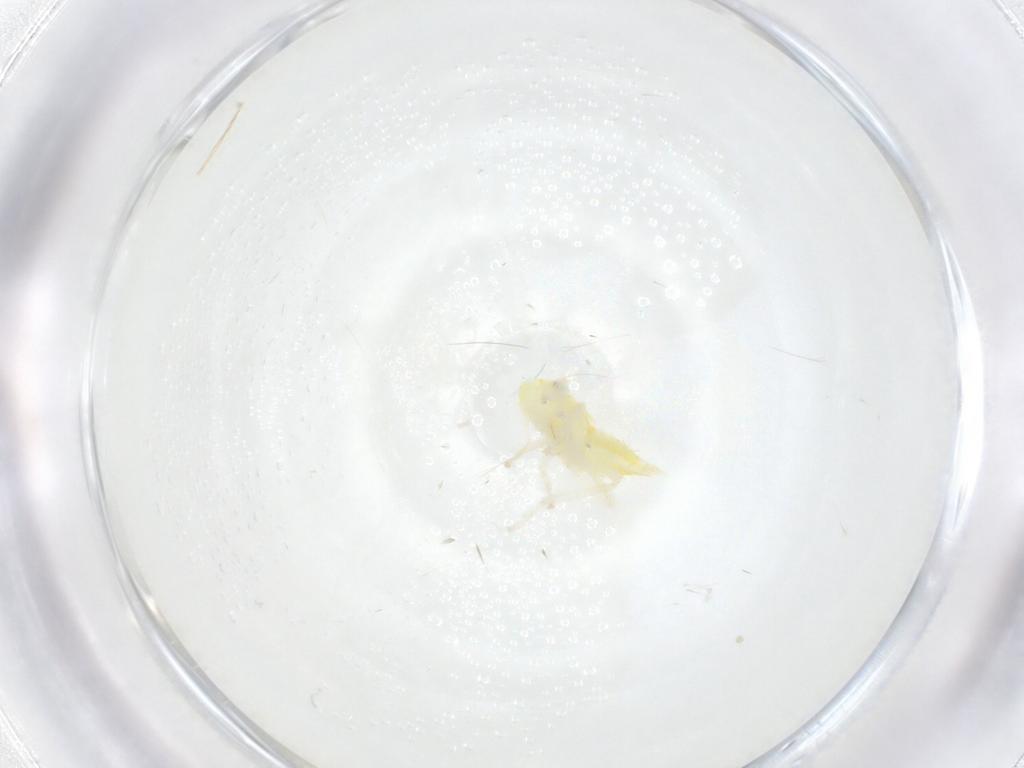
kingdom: Animalia
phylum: Arthropoda
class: Insecta
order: Hemiptera
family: Cicadellidae
